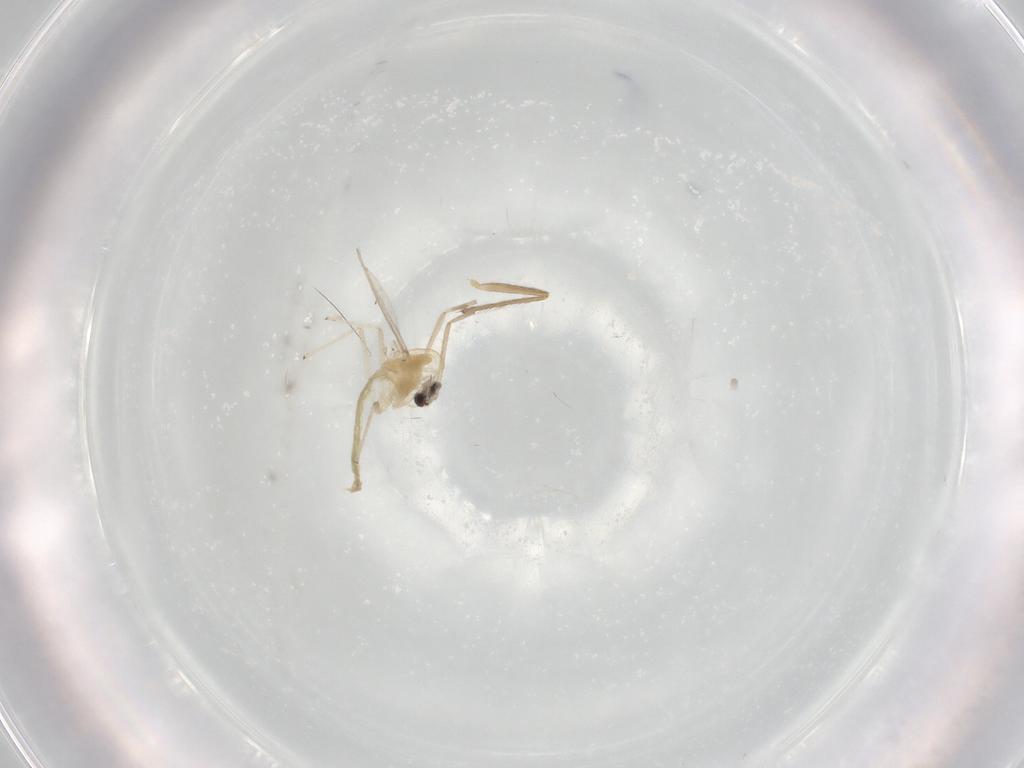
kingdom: Animalia
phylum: Arthropoda
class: Insecta
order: Diptera
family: Chironomidae
